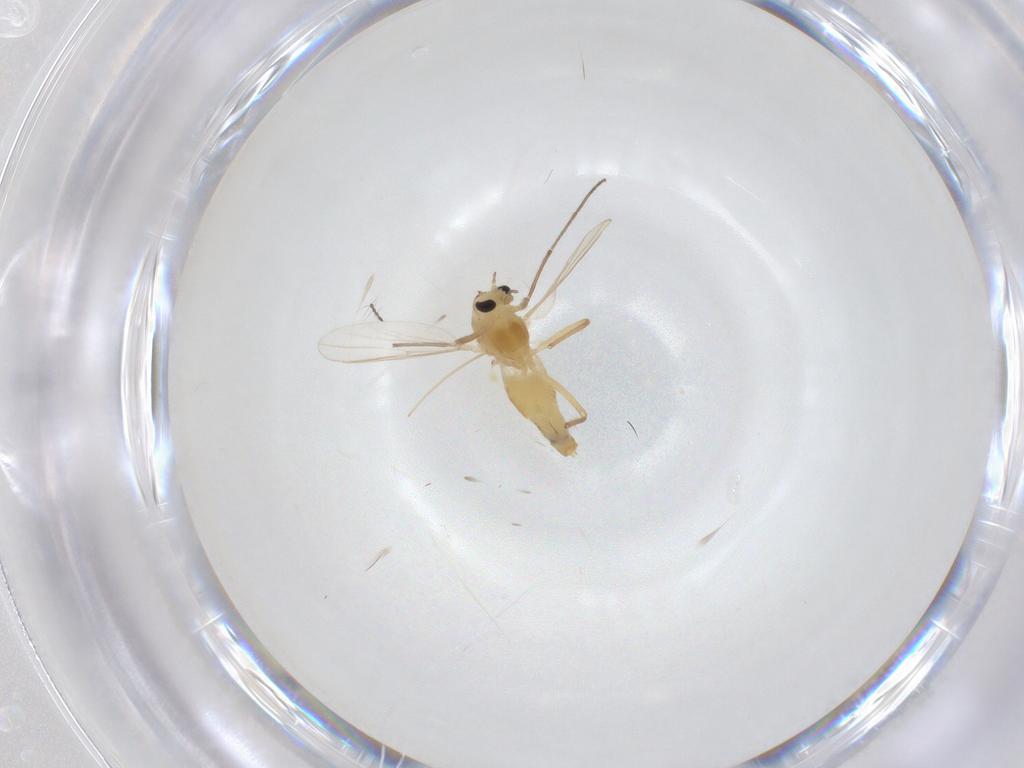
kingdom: Animalia
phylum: Arthropoda
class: Insecta
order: Diptera
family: Chironomidae
